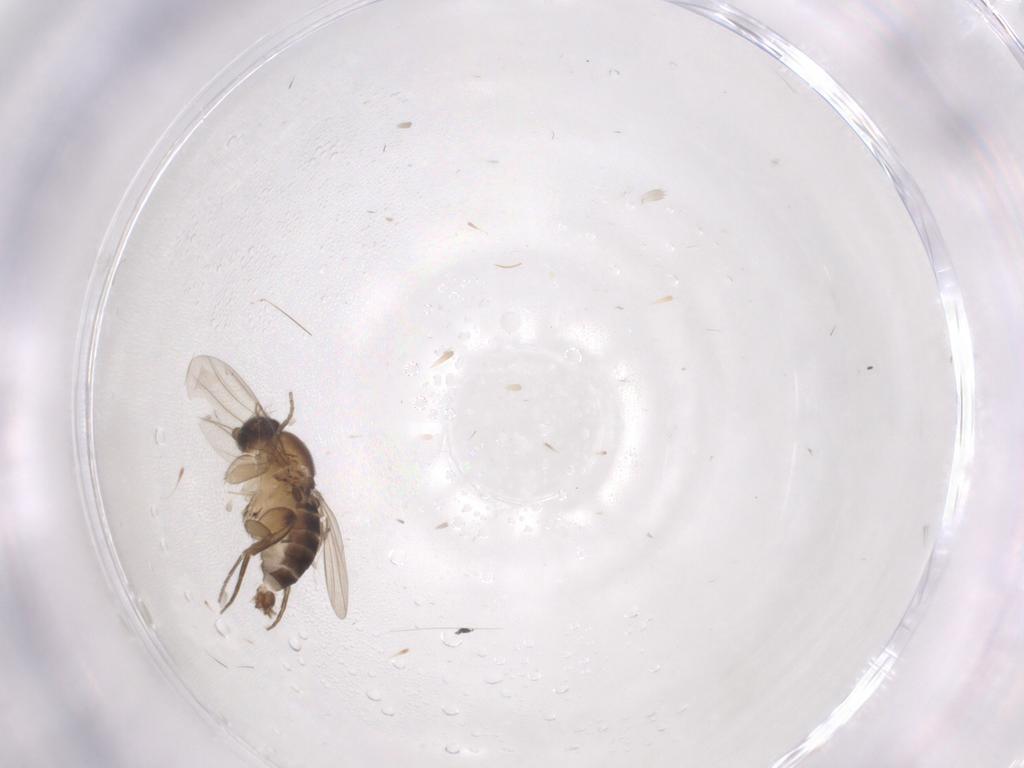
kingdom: Animalia
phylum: Arthropoda
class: Insecta
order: Diptera
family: Phoridae
